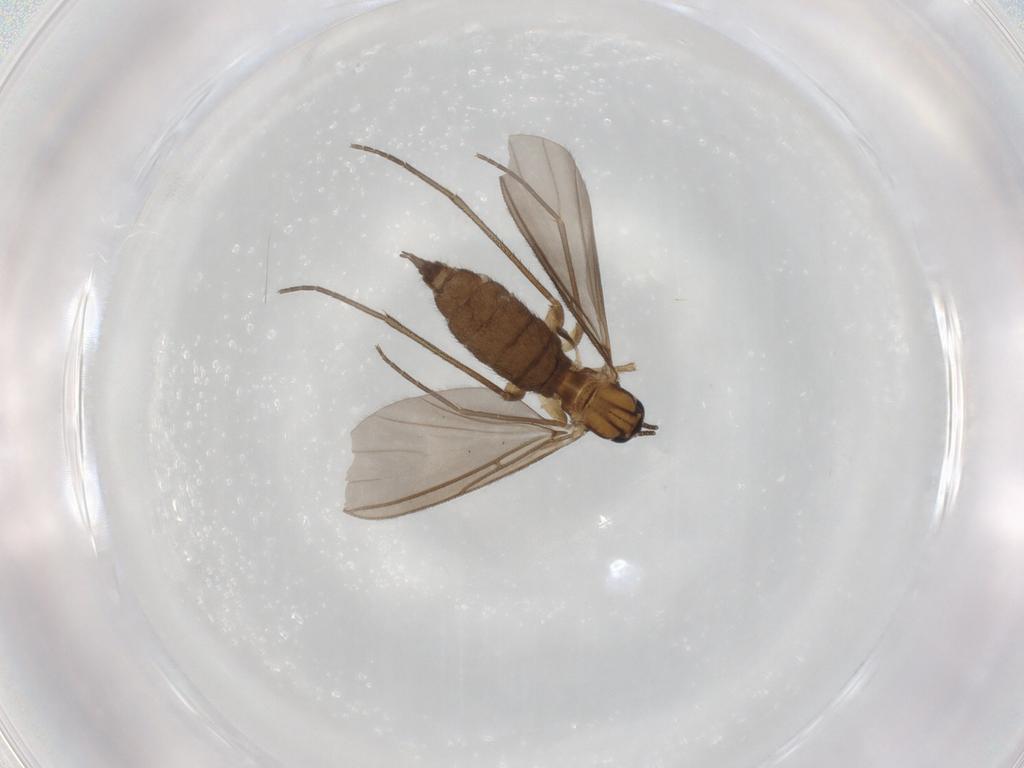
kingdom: Animalia
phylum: Arthropoda
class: Insecta
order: Diptera
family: Sciaridae
